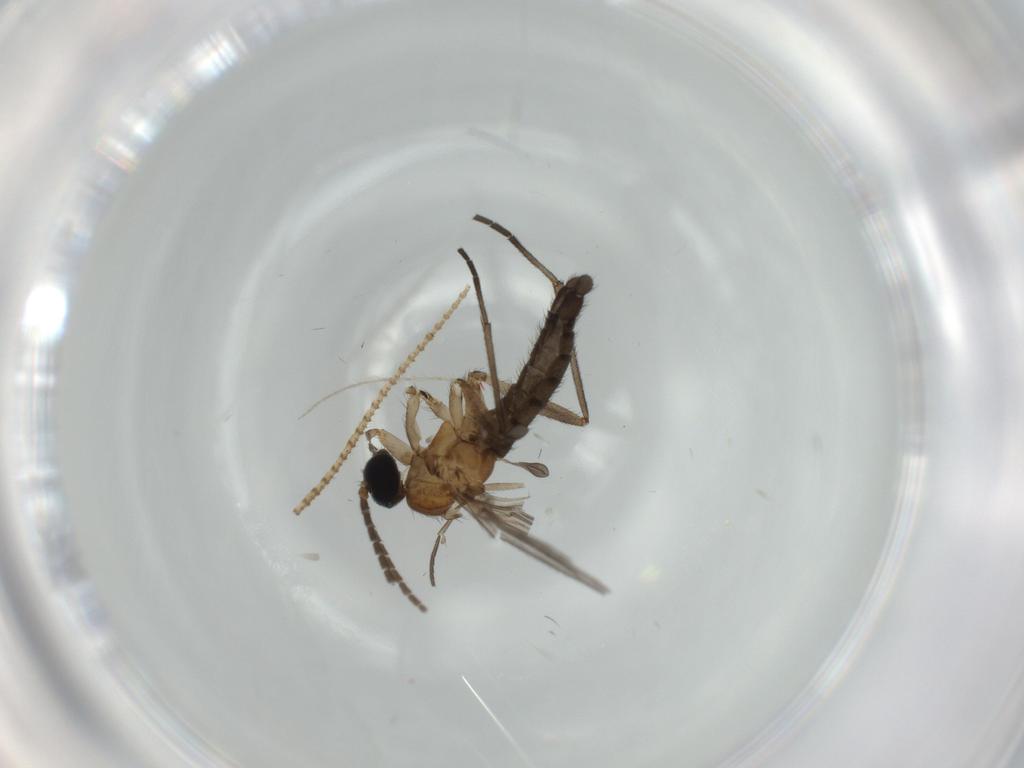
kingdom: Animalia
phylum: Arthropoda
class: Insecta
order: Diptera
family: Sciaridae
